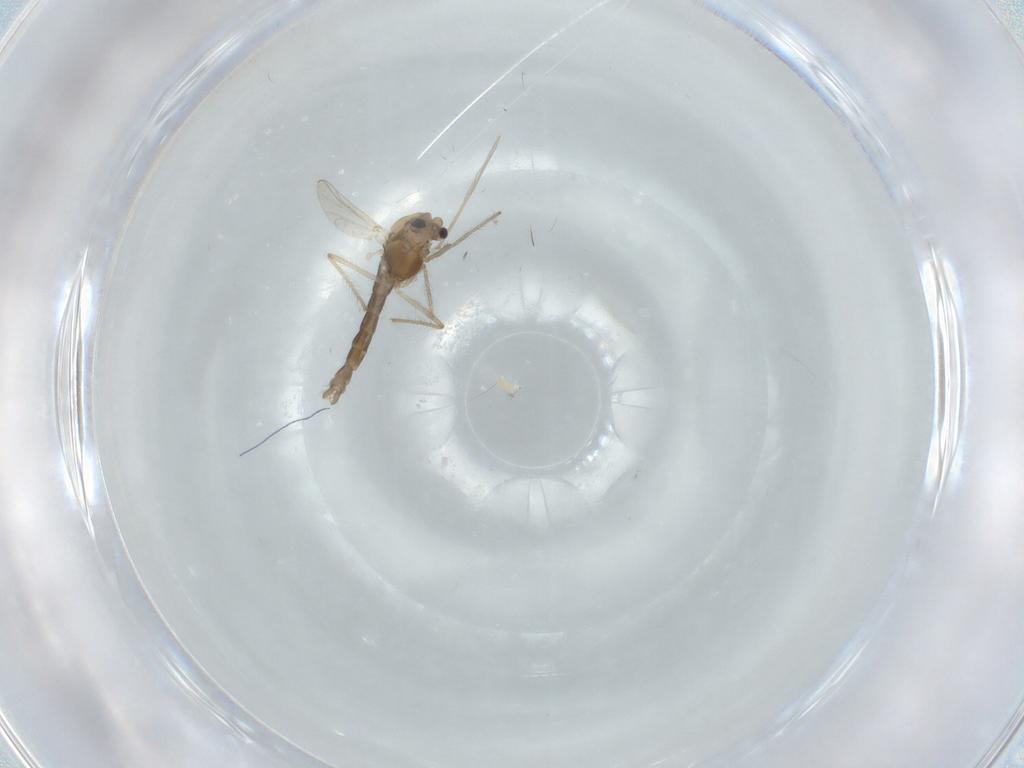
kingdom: Animalia
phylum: Arthropoda
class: Insecta
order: Diptera
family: Chironomidae
